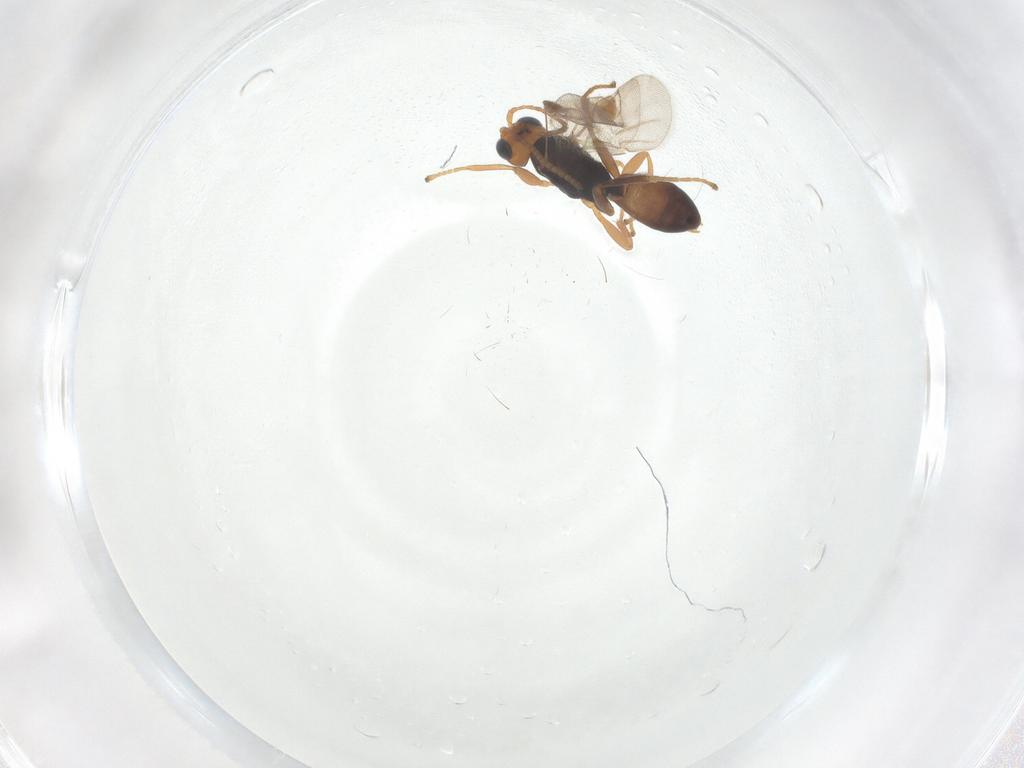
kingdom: Animalia
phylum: Arthropoda
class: Insecta
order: Hymenoptera
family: Braconidae
